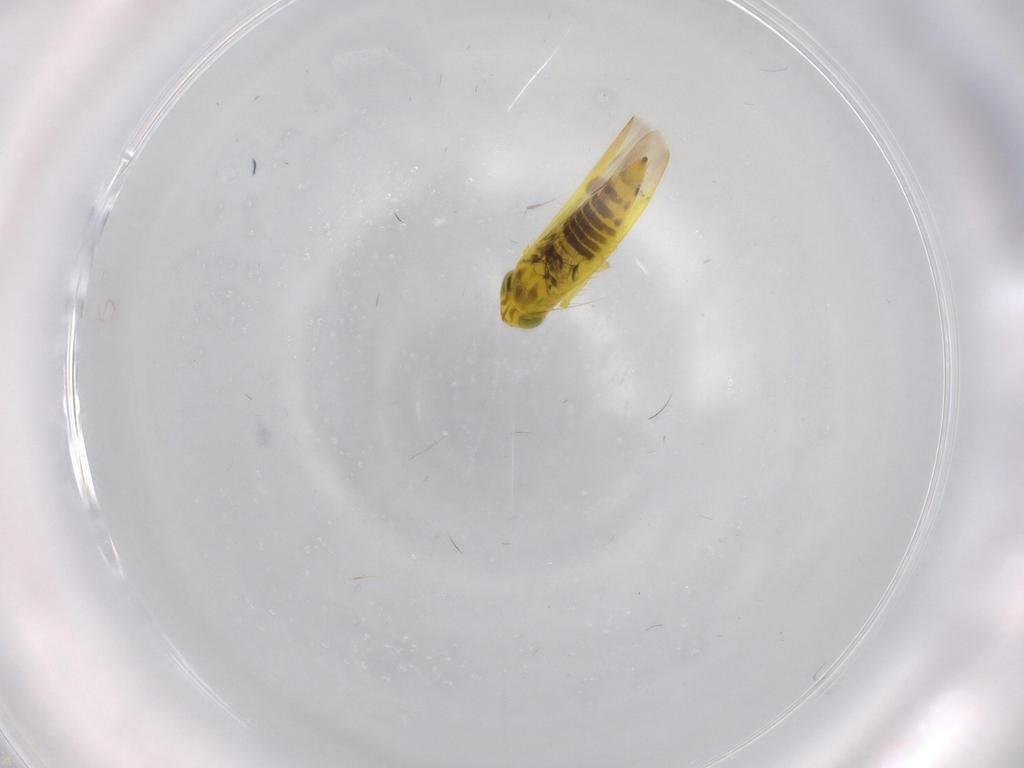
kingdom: Animalia
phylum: Arthropoda
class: Insecta
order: Hemiptera
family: Cicadellidae
